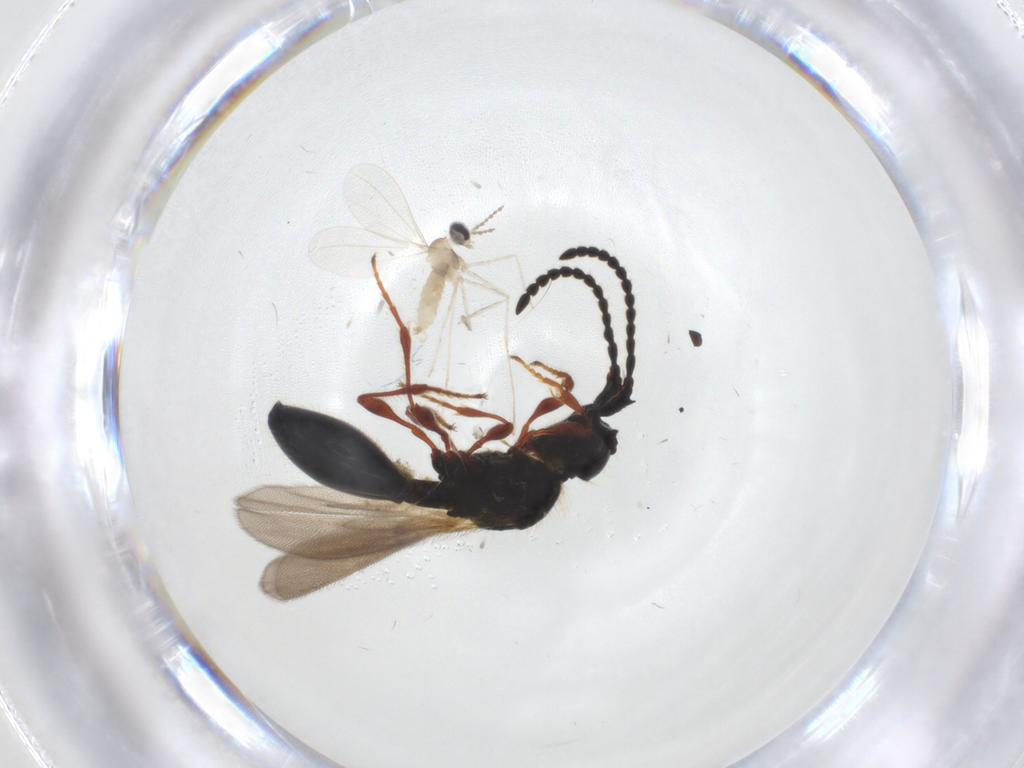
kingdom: Animalia
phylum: Arthropoda
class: Insecta
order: Diptera
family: Cecidomyiidae
